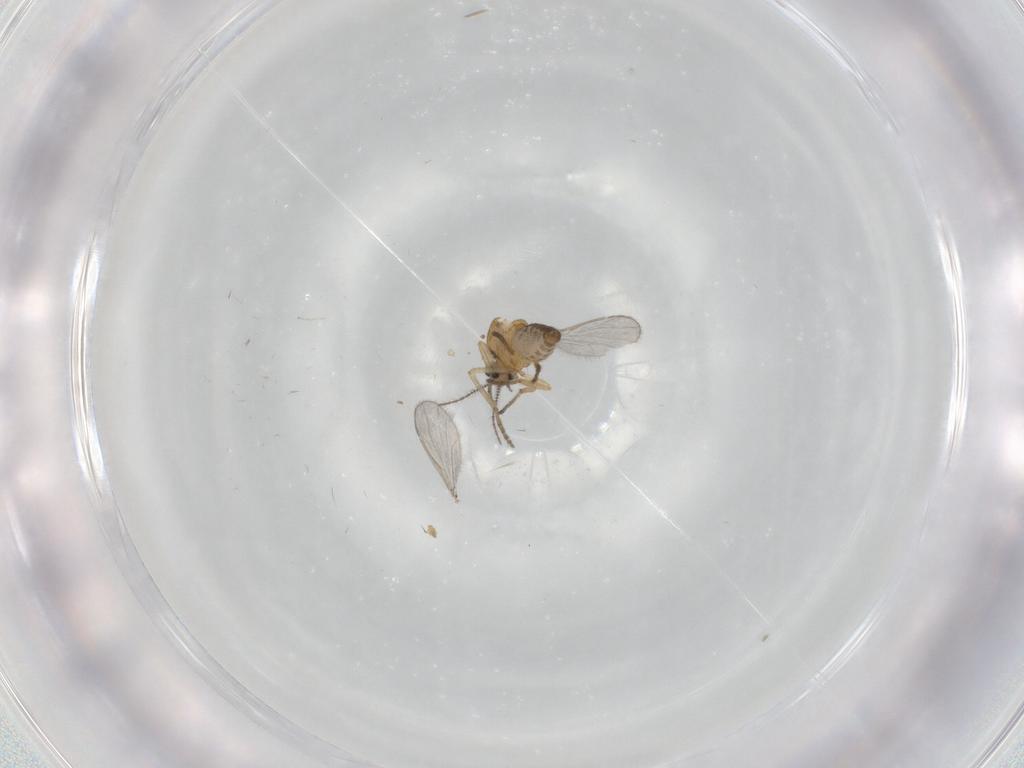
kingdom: Animalia
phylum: Arthropoda
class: Insecta
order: Diptera
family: Ceratopogonidae
